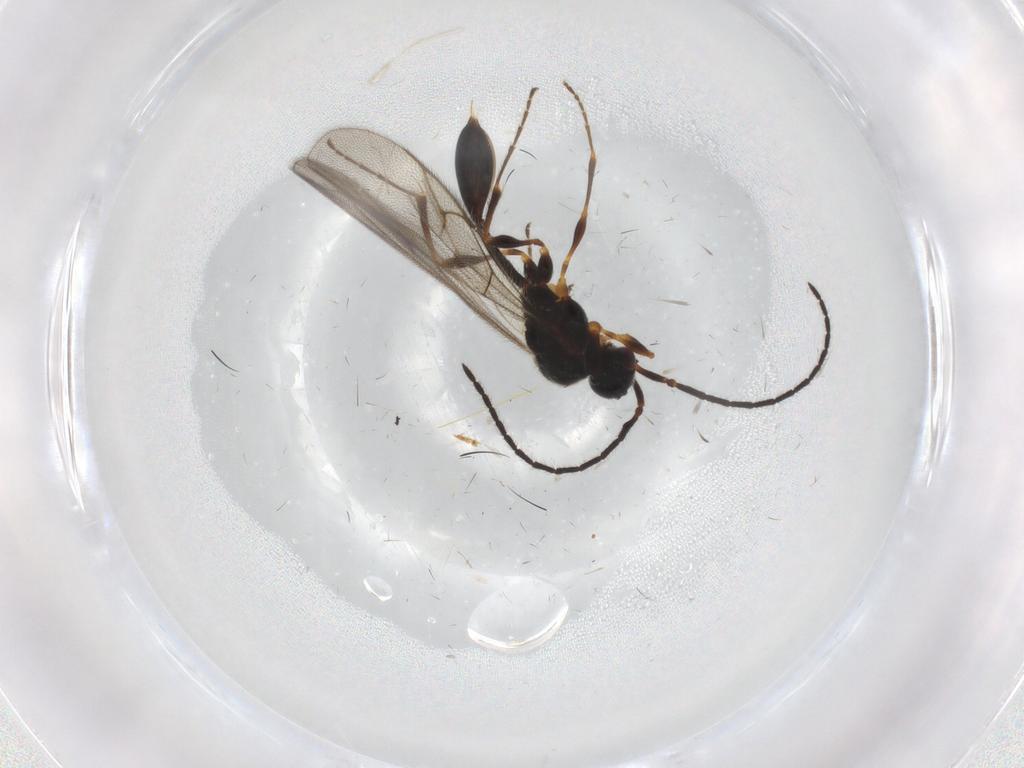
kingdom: Animalia
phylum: Arthropoda
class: Insecta
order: Hymenoptera
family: Diapriidae
